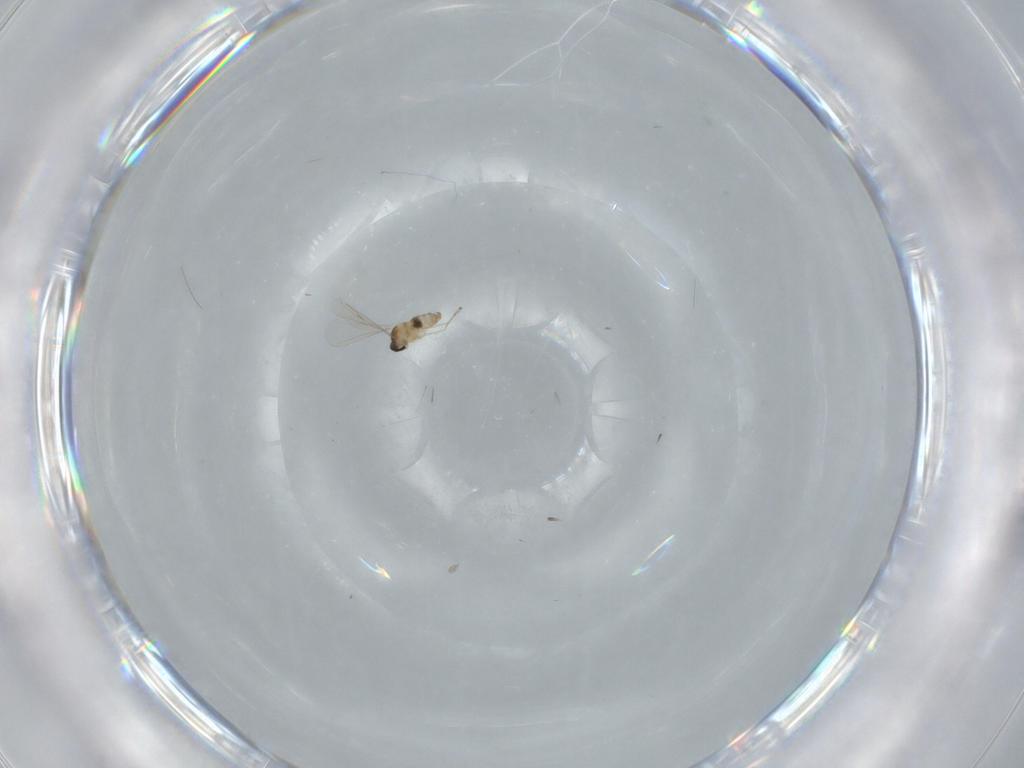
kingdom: Animalia
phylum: Arthropoda
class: Insecta
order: Diptera
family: Cecidomyiidae
